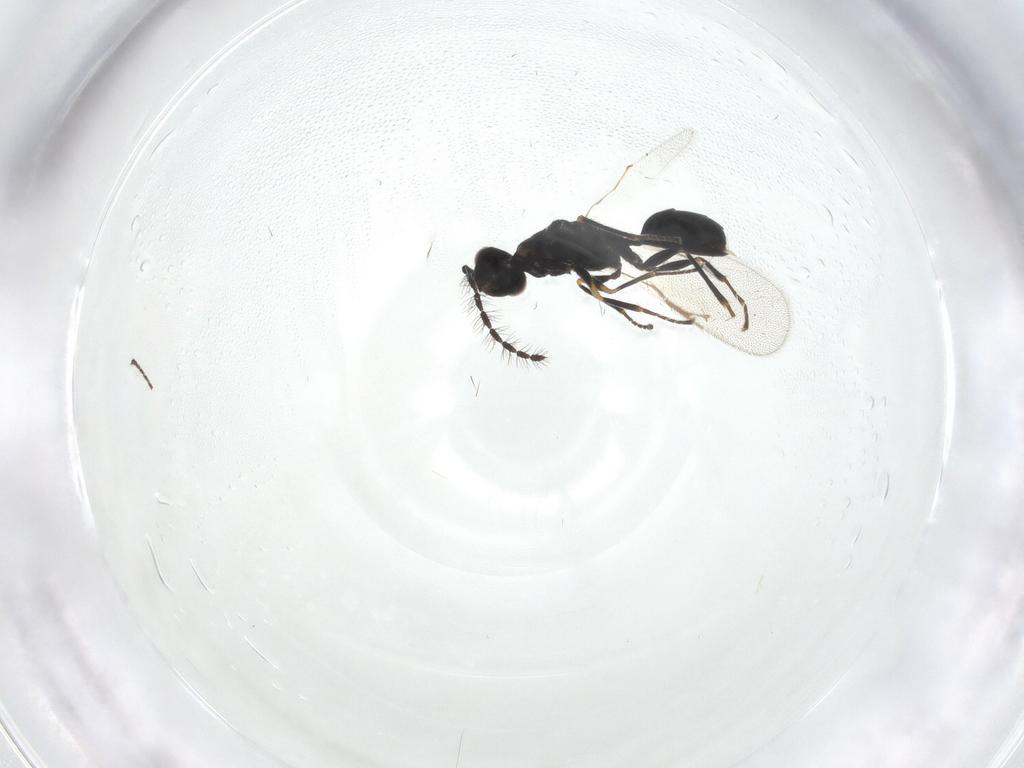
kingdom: Animalia
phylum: Arthropoda
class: Insecta
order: Hymenoptera
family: Eurytomidae
